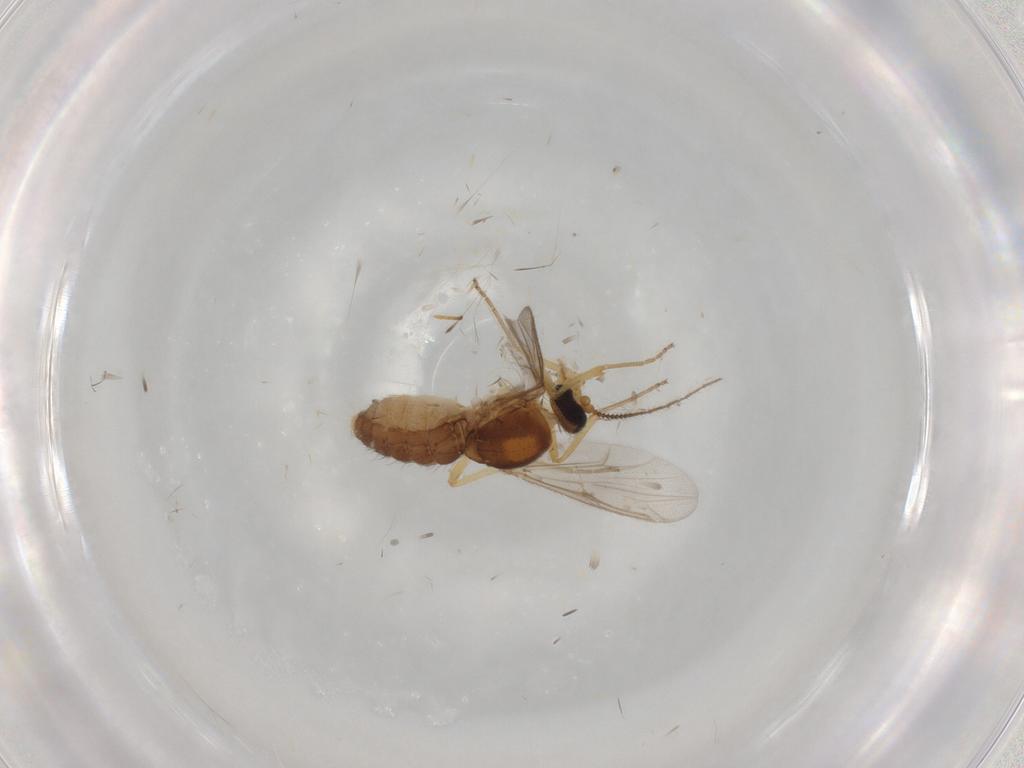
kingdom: Animalia
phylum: Arthropoda
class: Insecta
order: Diptera
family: Ceratopogonidae
